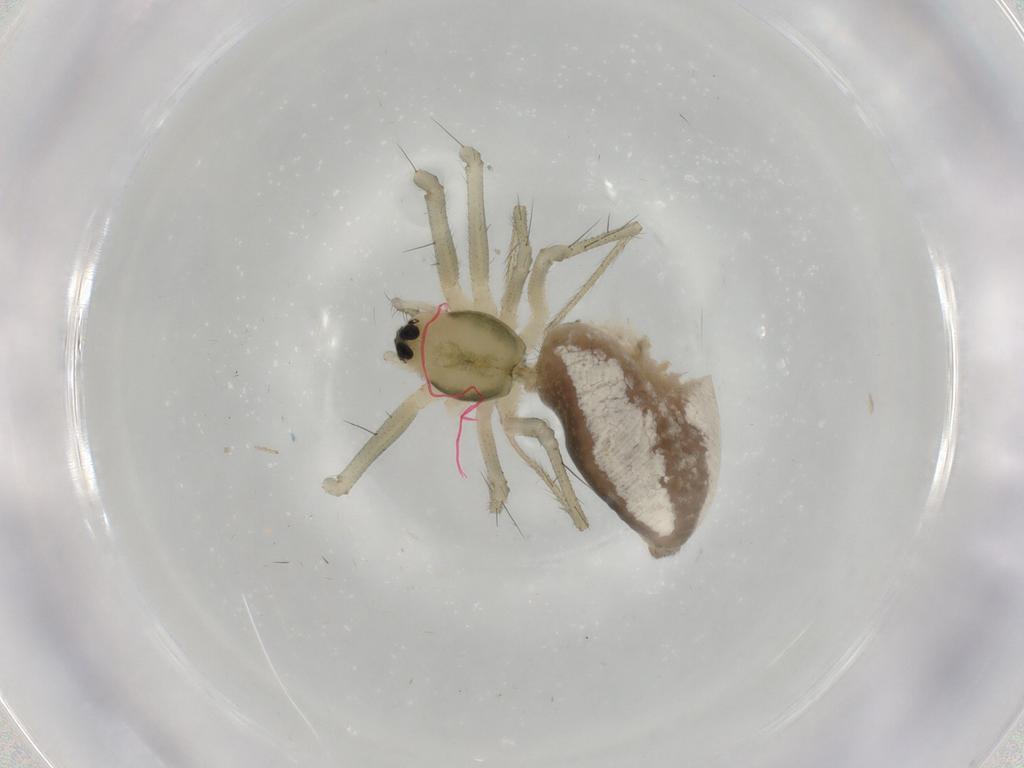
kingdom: Animalia
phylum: Arthropoda
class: Arachnida
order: Araneae
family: Linyphiidae
